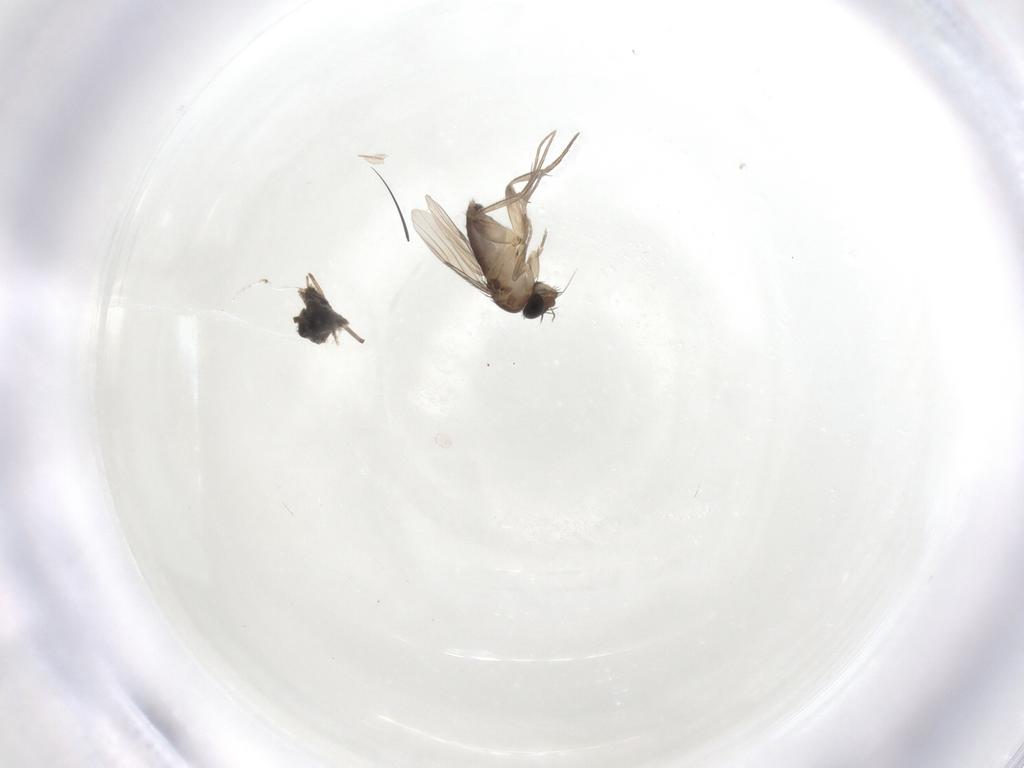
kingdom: Animalia
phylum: Arthropoda
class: Insecta
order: Diptera
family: Phoridae
